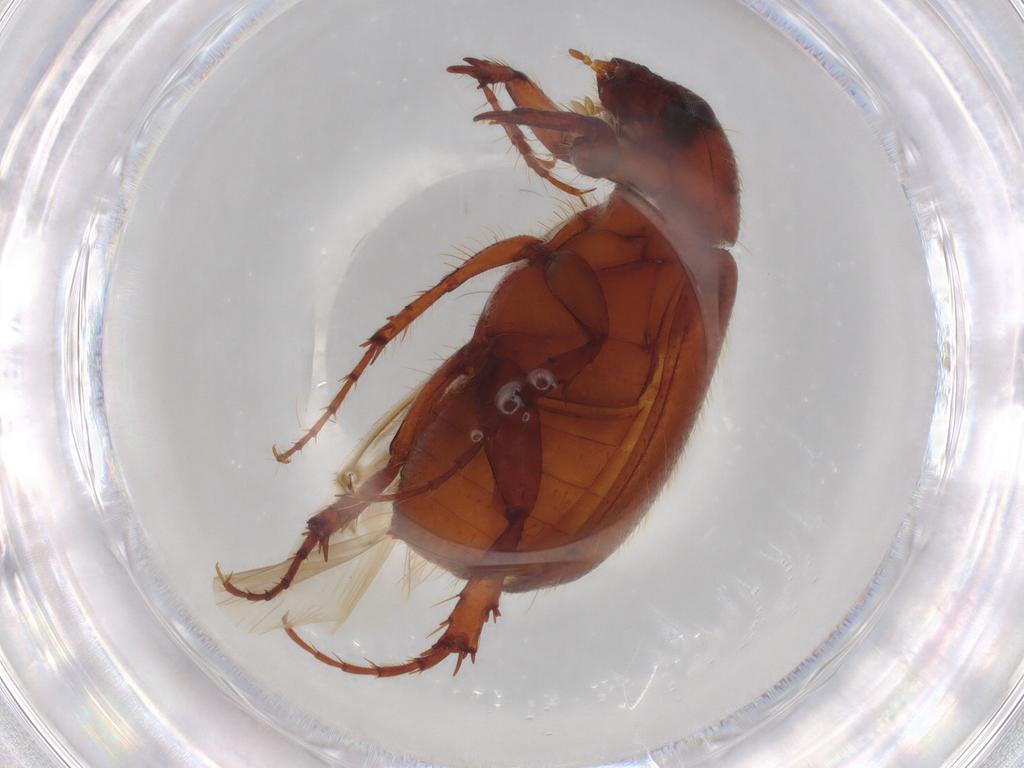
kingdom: Animalia
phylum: Arthropoda
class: Insecta
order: Coleoptera
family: Melolonthidae
